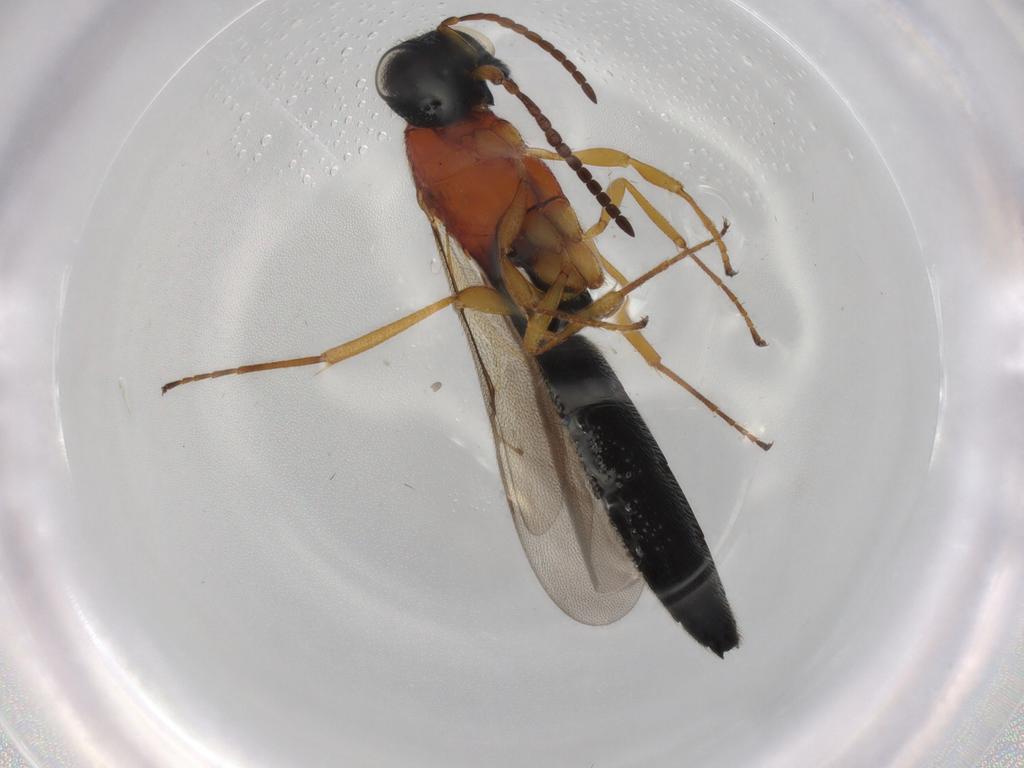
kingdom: Animalia
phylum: Arthropoda
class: Insecta
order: Hymenoptera
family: Scelionidae
